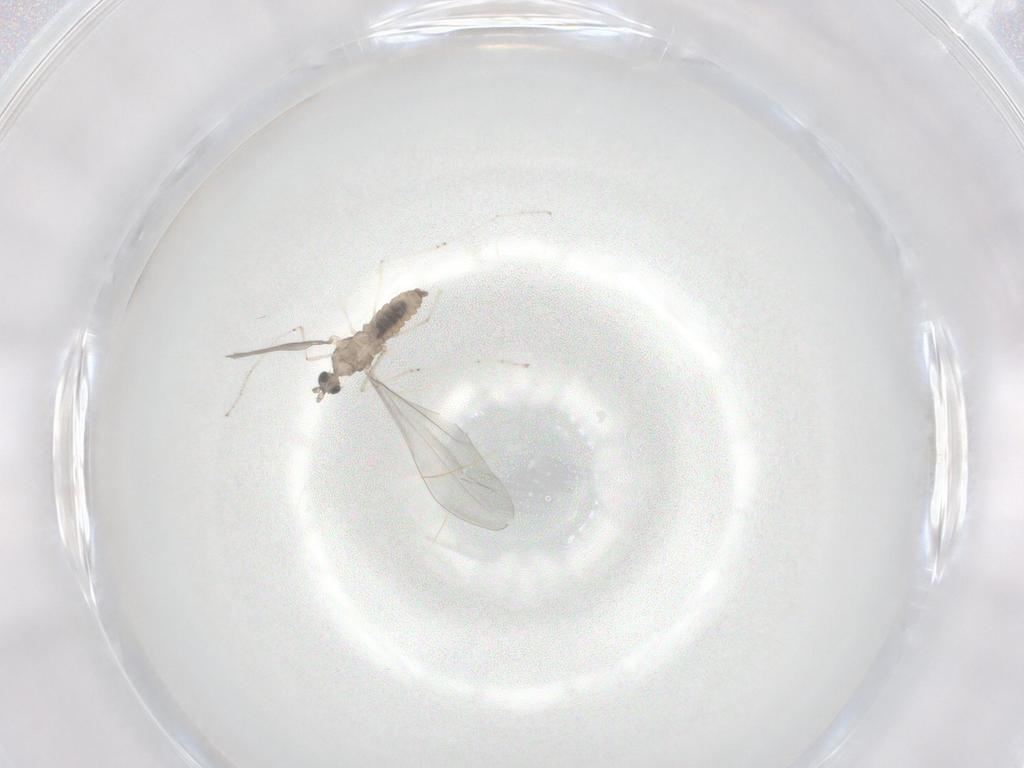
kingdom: Animalia
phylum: Arthropoda
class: Insecta
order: Diptera
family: Cecidomyiidae
